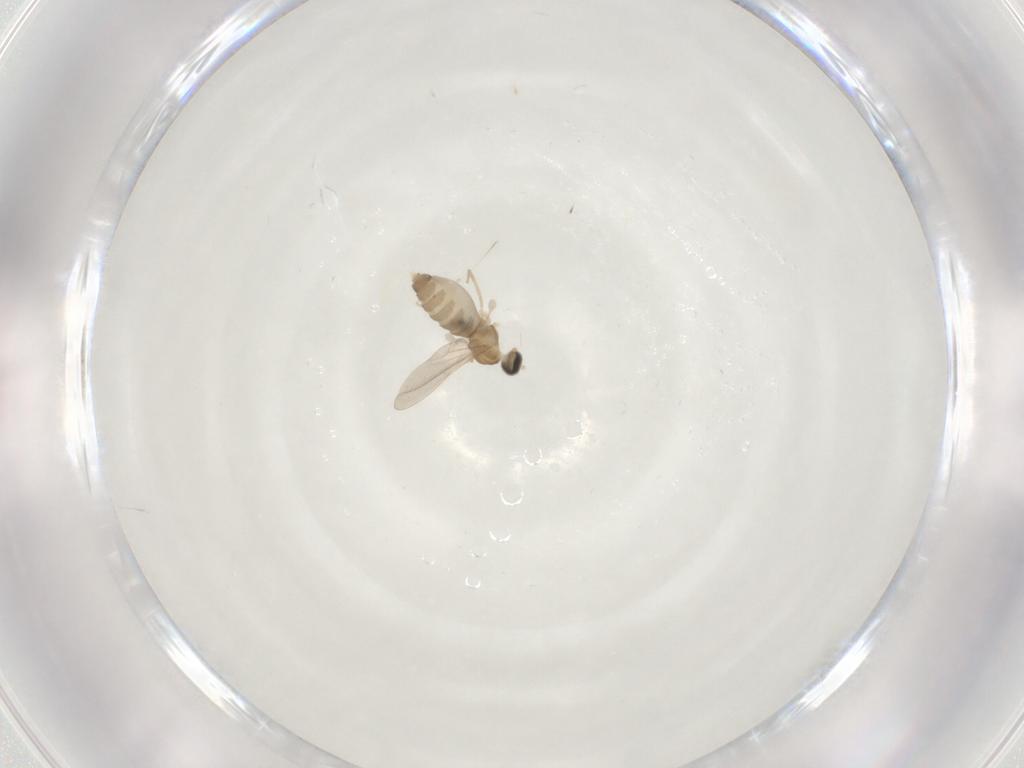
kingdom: Animalia
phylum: Arthropoda
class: Insecta
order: Diptera
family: Cecidomyiidae
